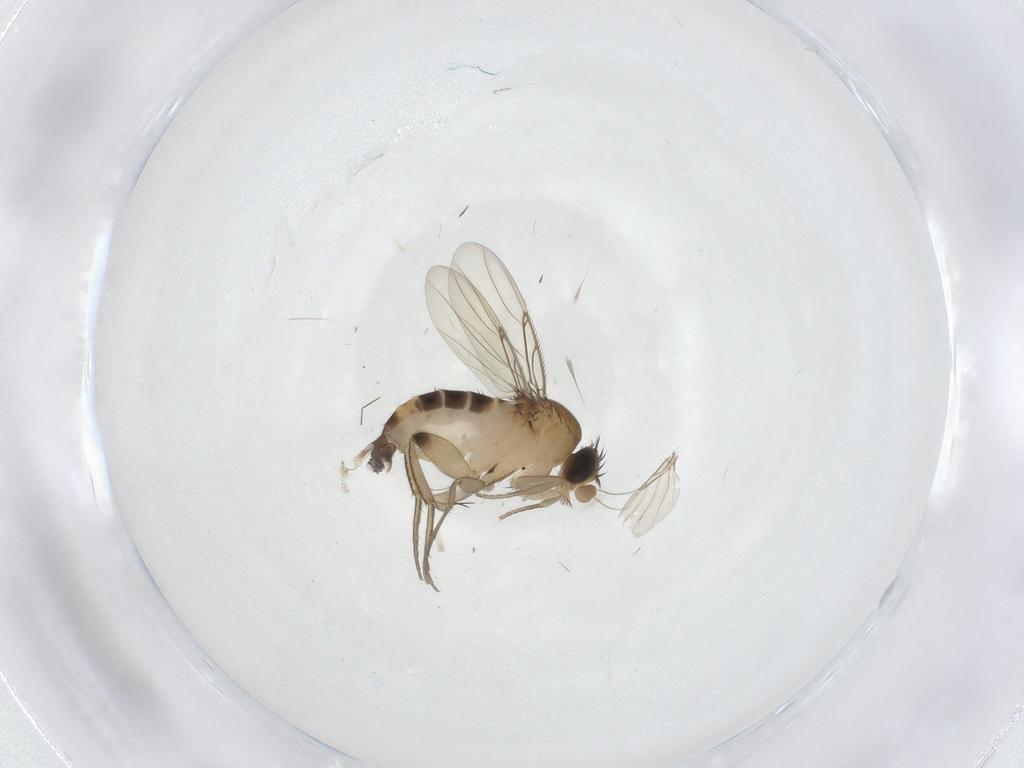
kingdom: Animalia
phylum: Arthropoda
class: Insecta
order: Diptera
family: Phoridae
